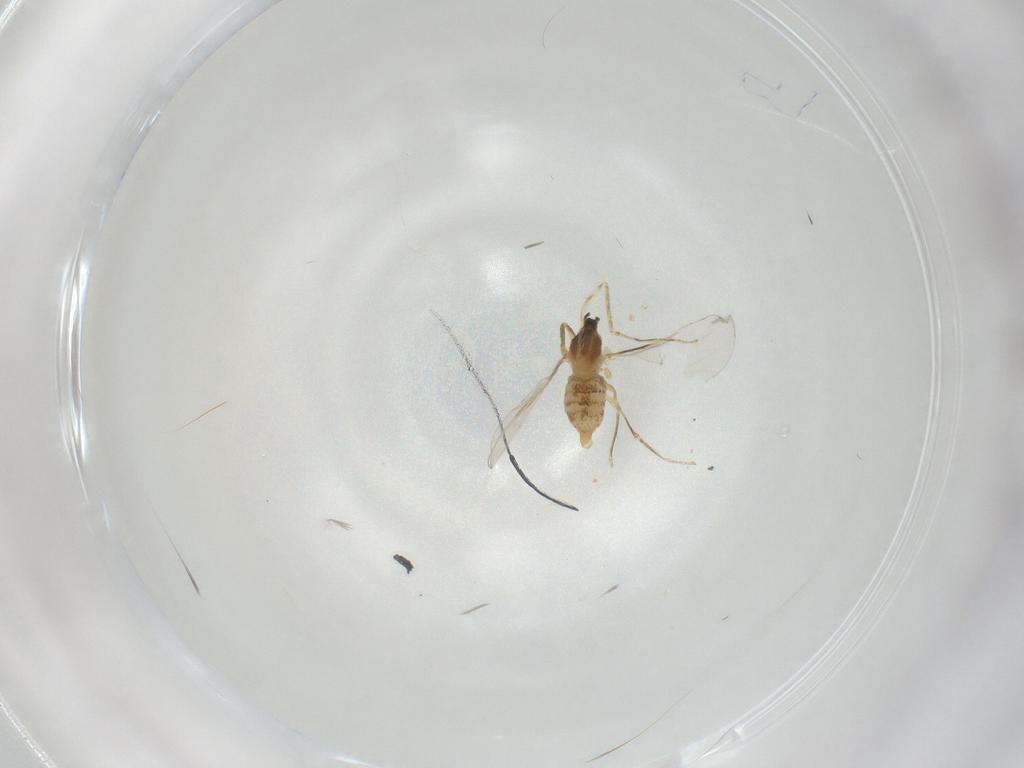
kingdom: Animalia
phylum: Arthropoda
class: Insecta
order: Diptera
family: Cecidomyiidae
